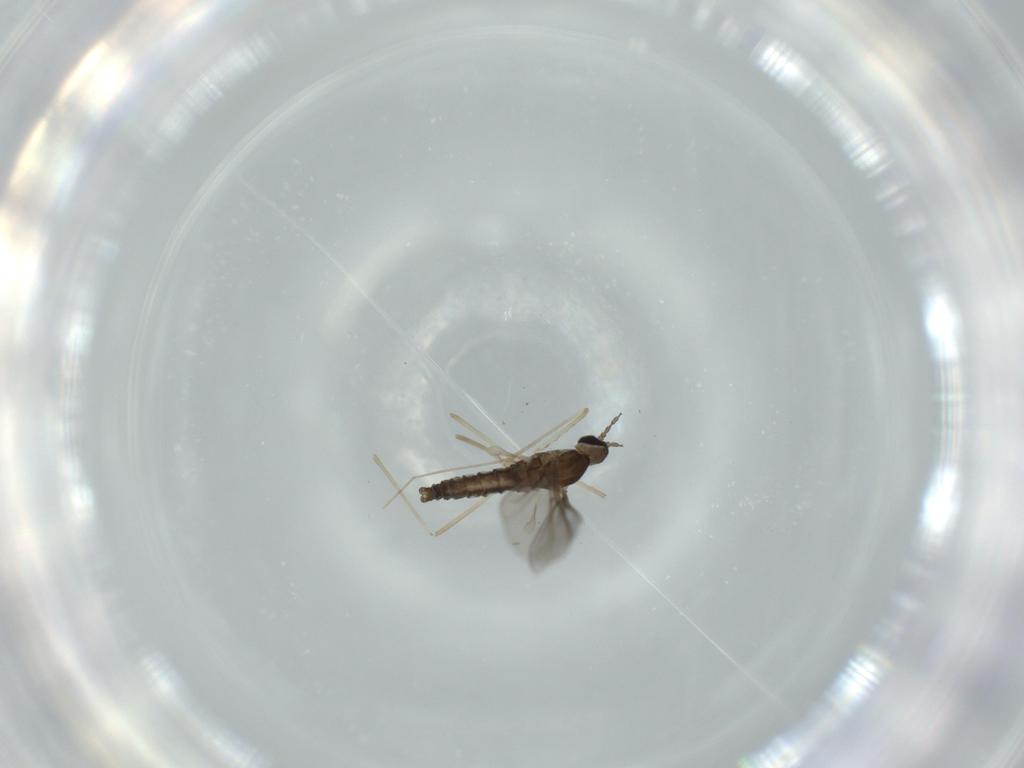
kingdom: Animalia
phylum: Arthropoda
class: Insecta
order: Diptera
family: Cecidomyiidae
